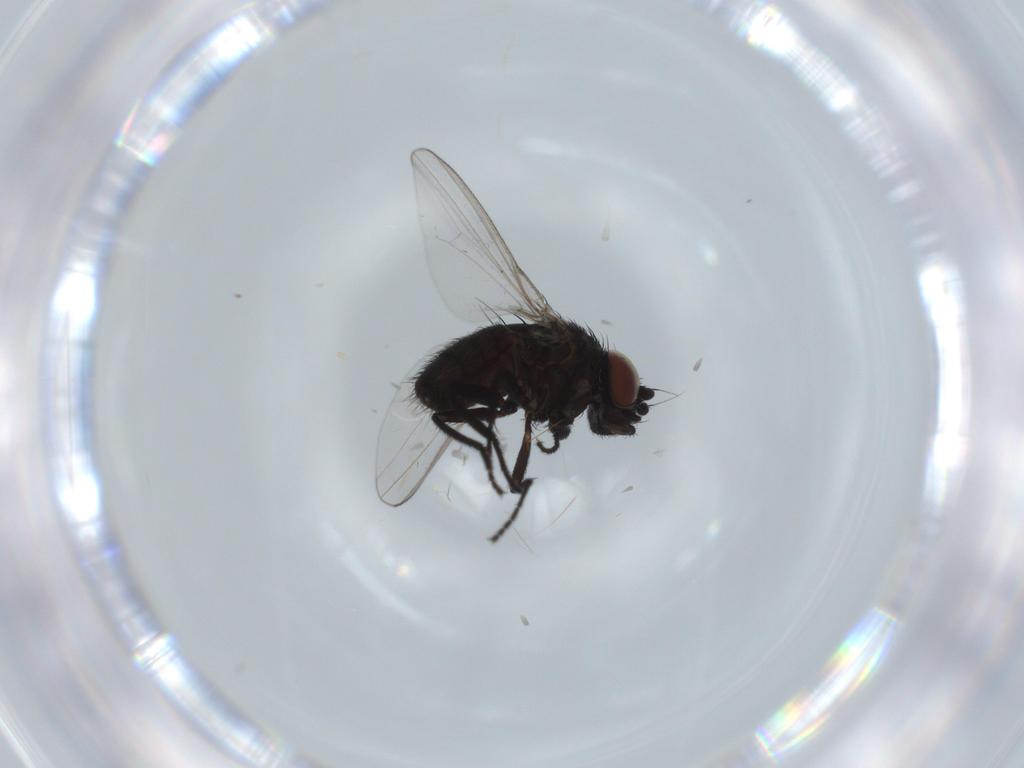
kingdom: Animalia
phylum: Arthropoda
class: Insecta
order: Diptera
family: Milichiidae
